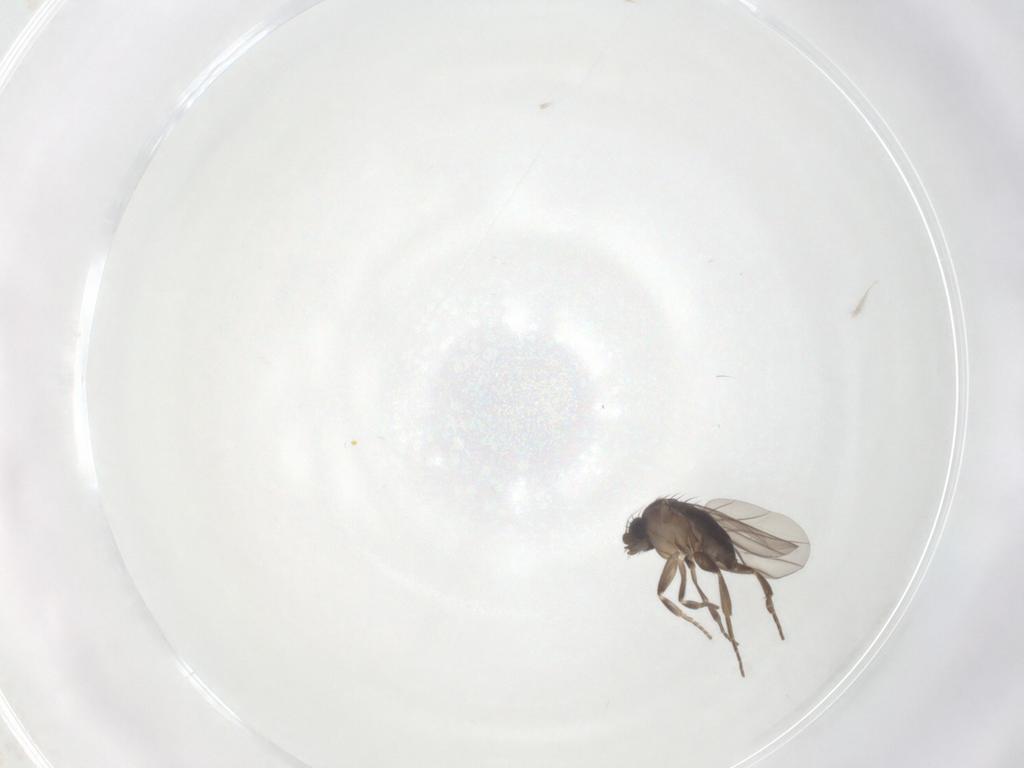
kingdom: Animalia
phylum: Arthropoda
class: Insecta
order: Diptera
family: Phoridae
